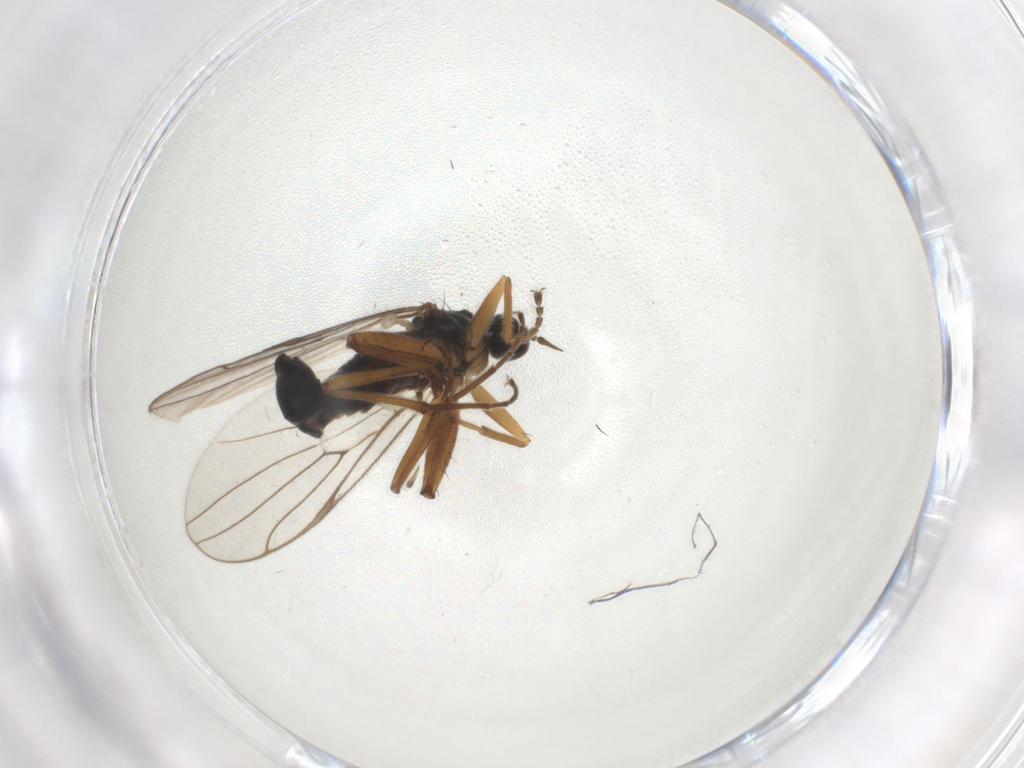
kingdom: Animalia
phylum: Arthropoda
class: Insecta
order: Diptera
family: Hybotidae
